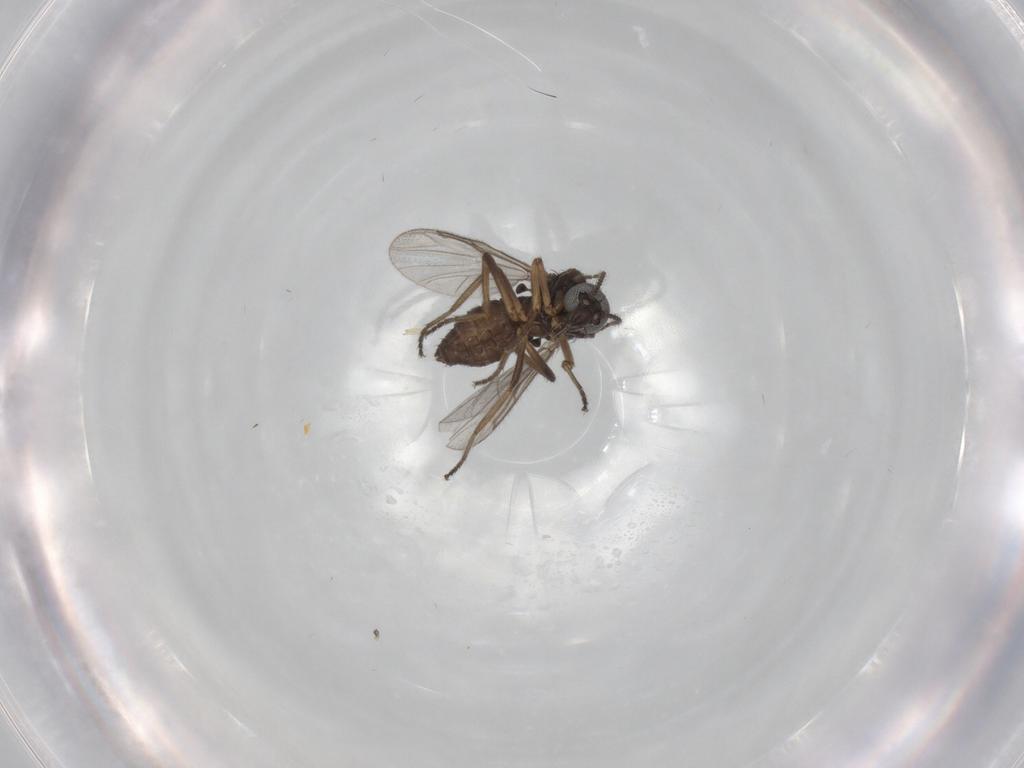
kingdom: Animalia
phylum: Arthropoda
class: Insecta
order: Diptera
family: Ceratopogonidae
